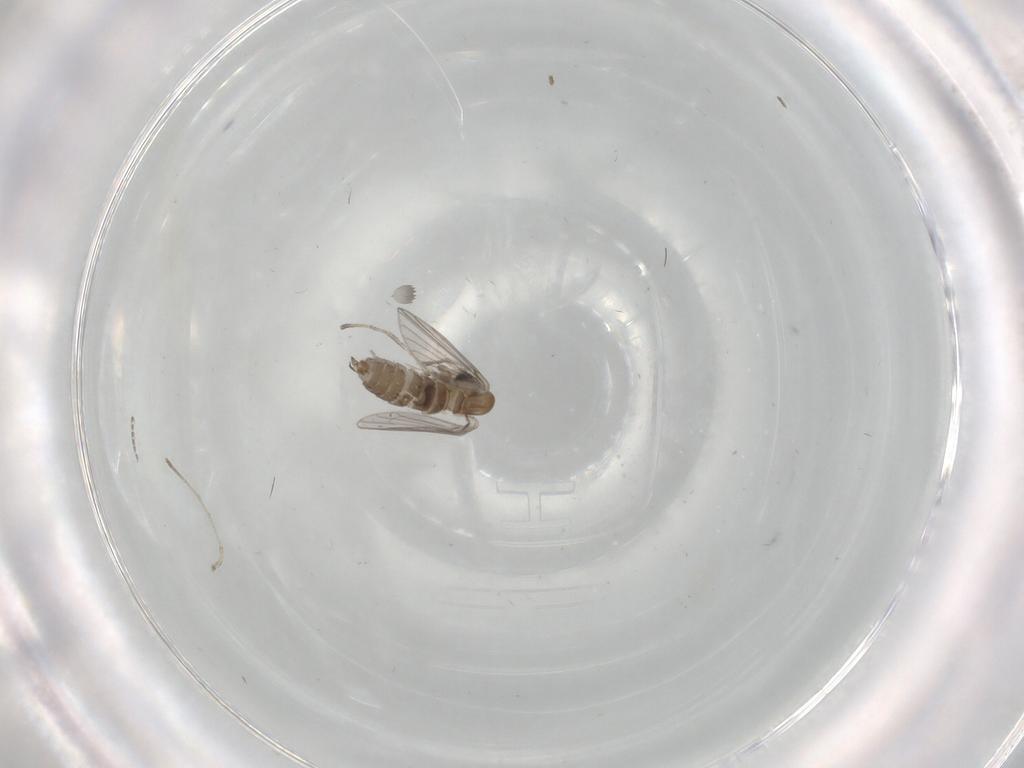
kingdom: Animalia
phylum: Arthropoda
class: Insecta
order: Diptera
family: Cecidomyiidae
